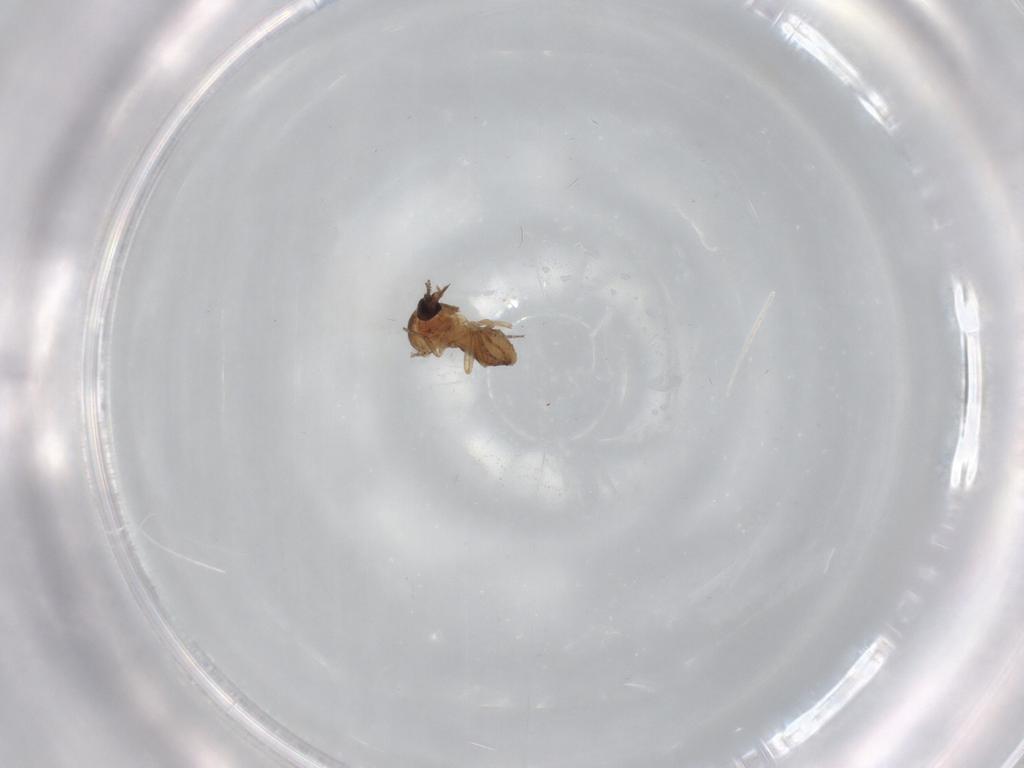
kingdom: Animalia
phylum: Arthropoda
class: Insecta
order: Diptera
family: Ceratopogonidae
